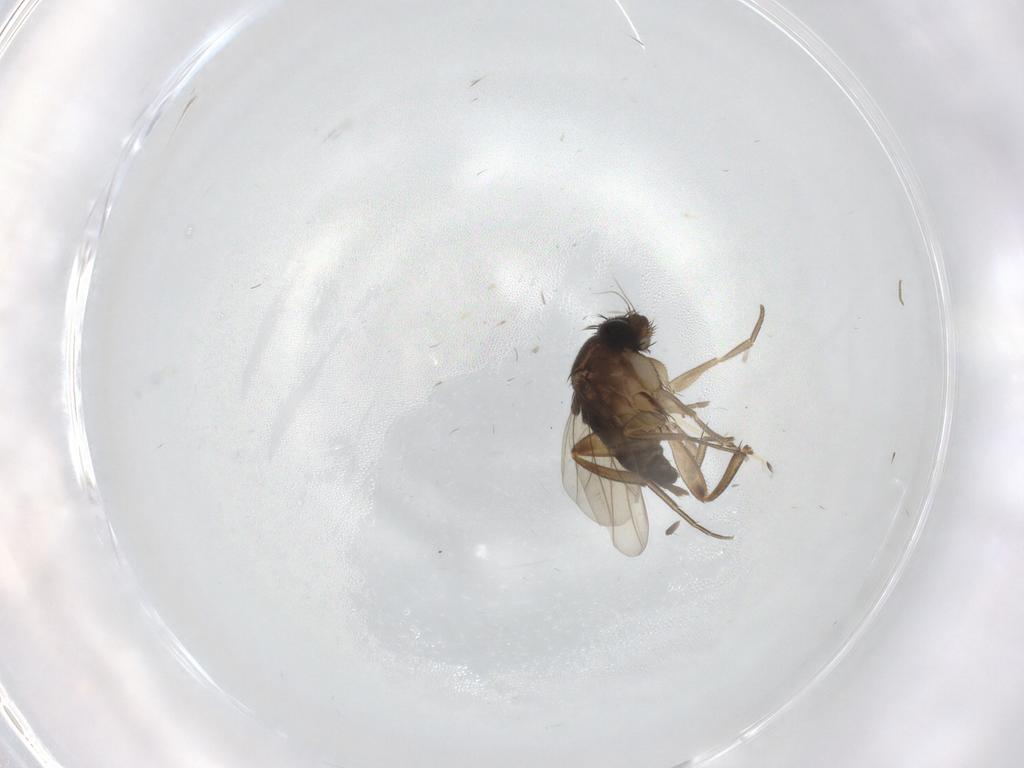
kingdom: Animalia
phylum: Arthropoda
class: Insecta
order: Diptera
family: Phoridae
